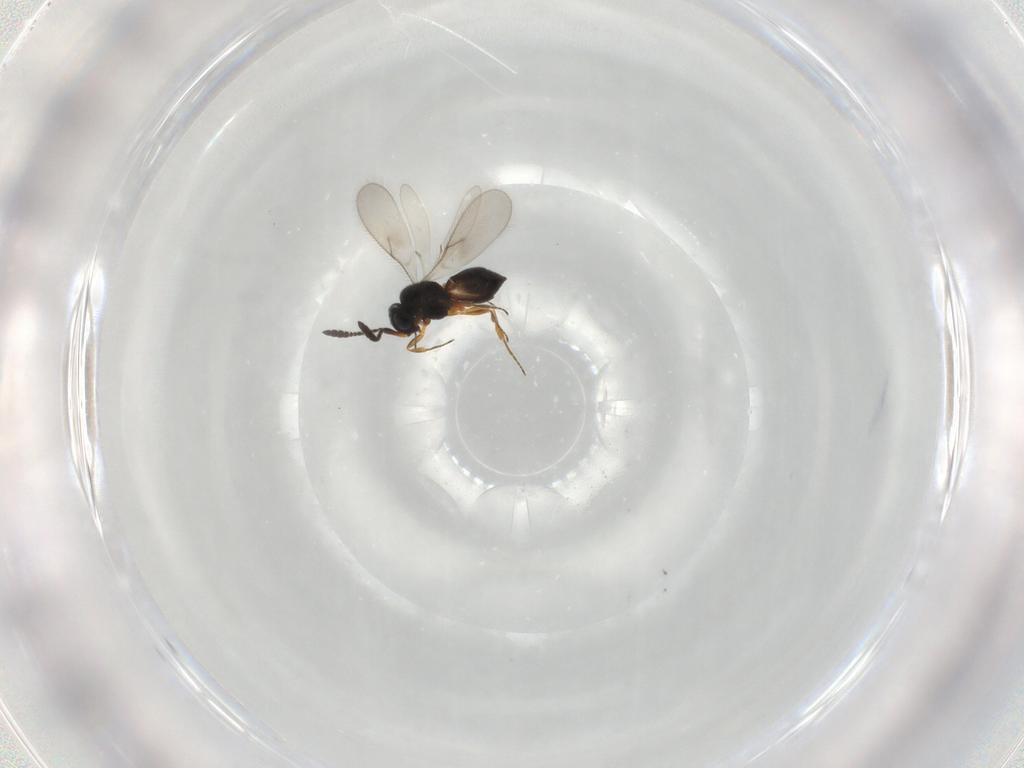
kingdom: Animalia
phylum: Arthropoda
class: Insecta
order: Hymenoptera
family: Scelionidae
